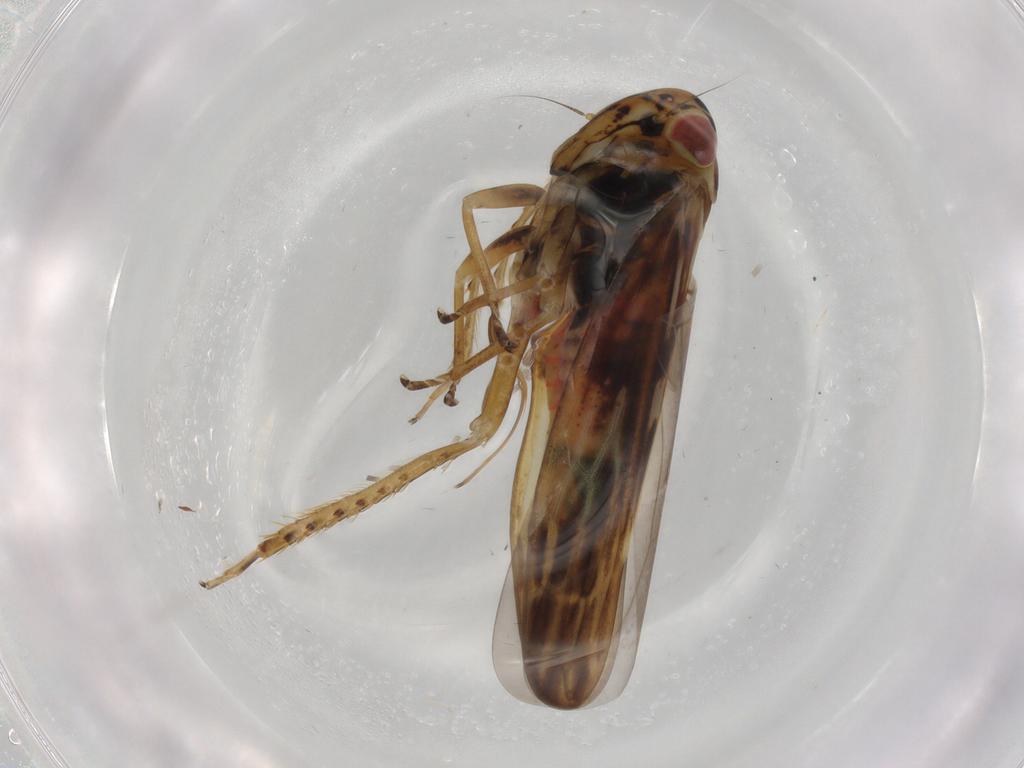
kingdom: Animalia
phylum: Arthropoda
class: Insecta
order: Hemiptera
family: Cicadellidae
